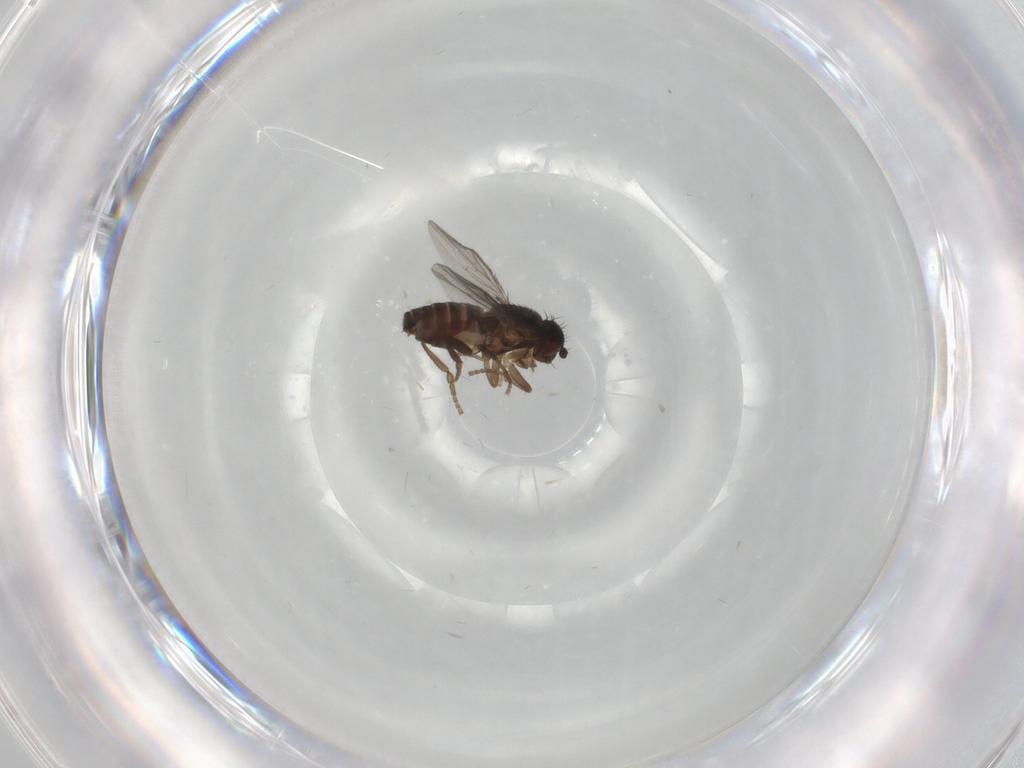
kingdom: Animalia
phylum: Arthropoda
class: Insecta
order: Diptera
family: Sphaeroceridae
